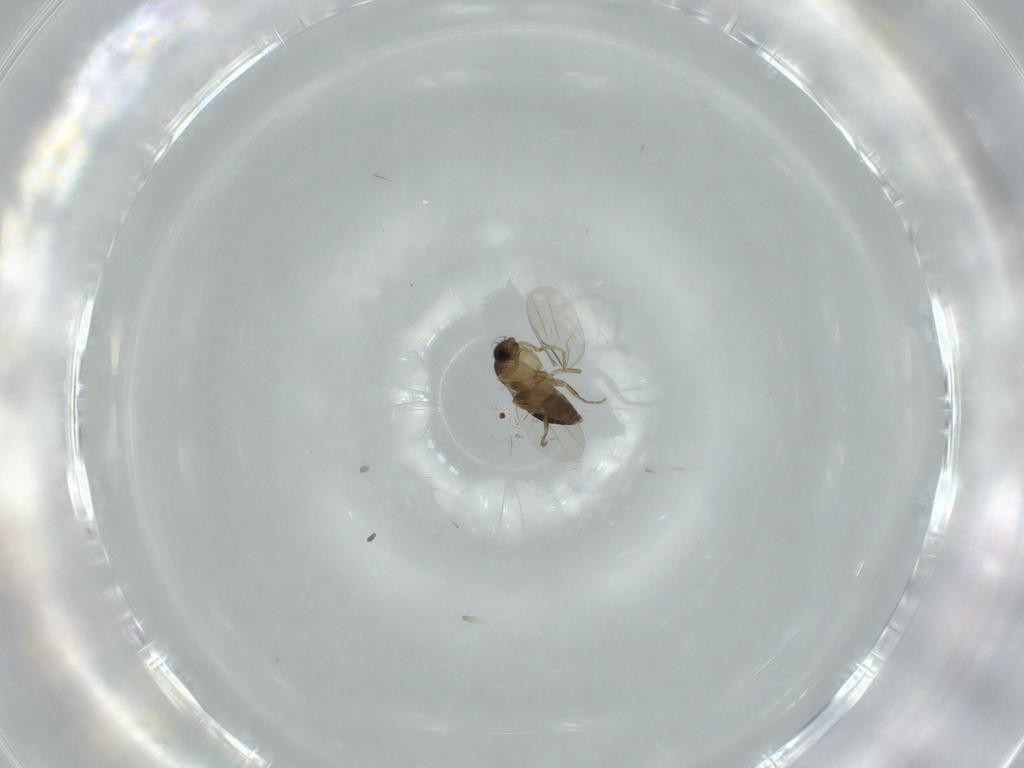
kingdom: Animalia
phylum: Arthropoda
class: Insecta
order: Diptera
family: Phoridae
